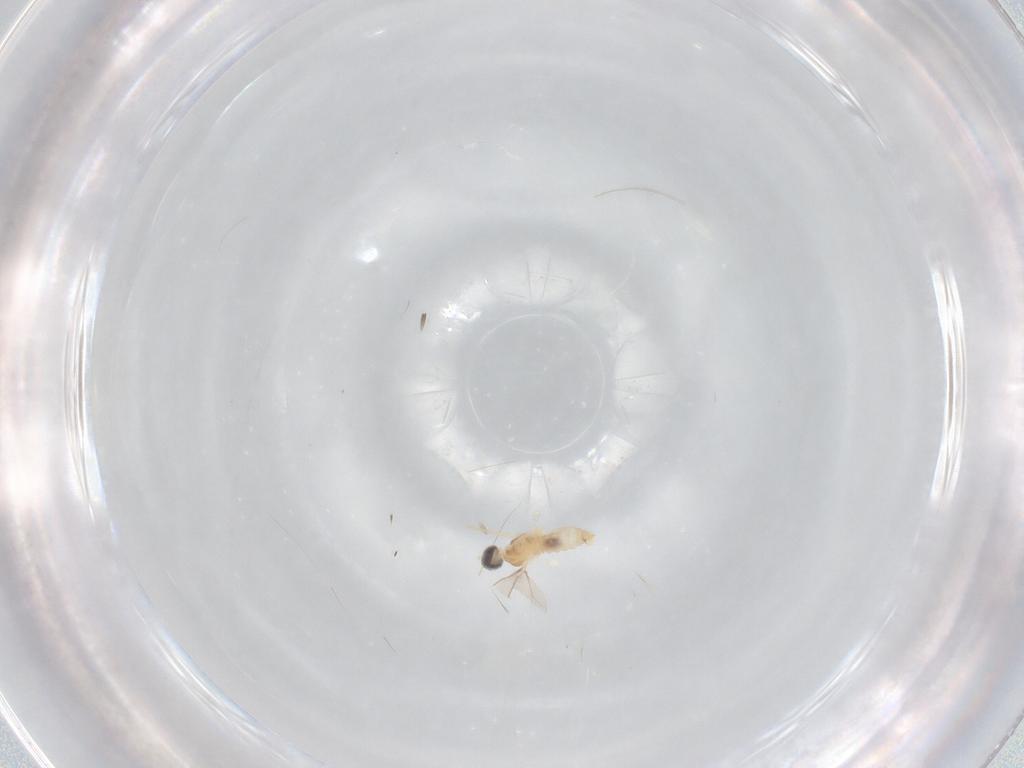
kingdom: Animalia
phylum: Arthropoda
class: Insecta
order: Diptera
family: Cecidomyiidae
